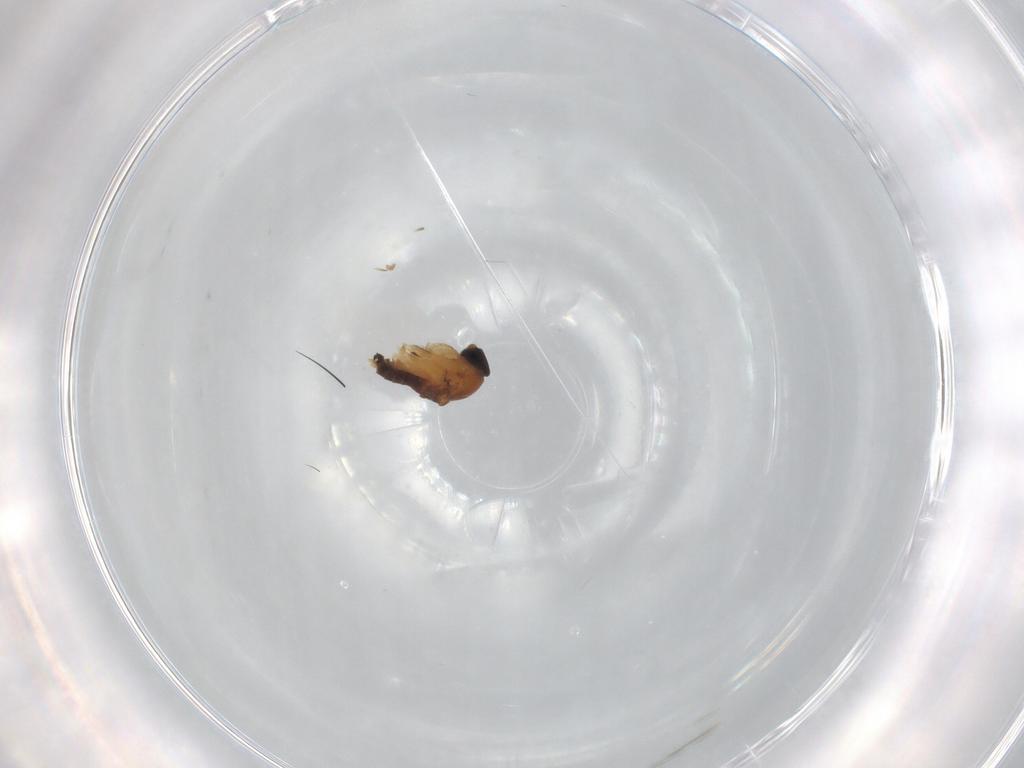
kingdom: Animalia
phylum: Arthropoda
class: Insecta
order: Diptera
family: Phoridae
